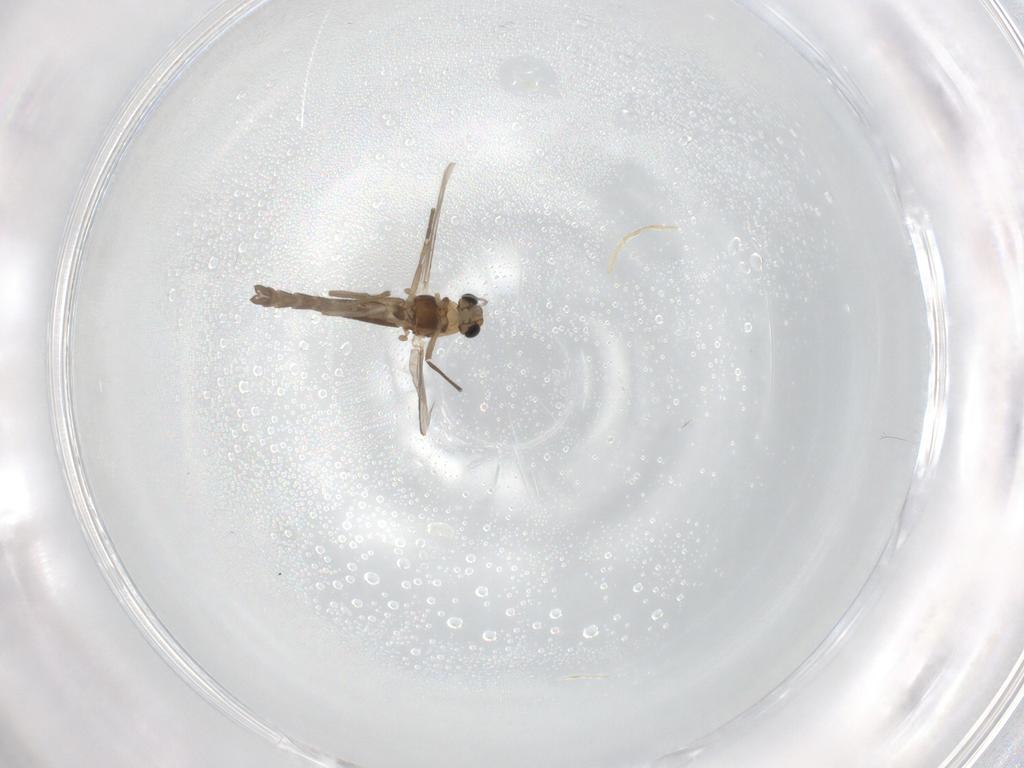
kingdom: Animalia
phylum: Arthropoda
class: Insecta
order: Diptera
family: Chironomidae
